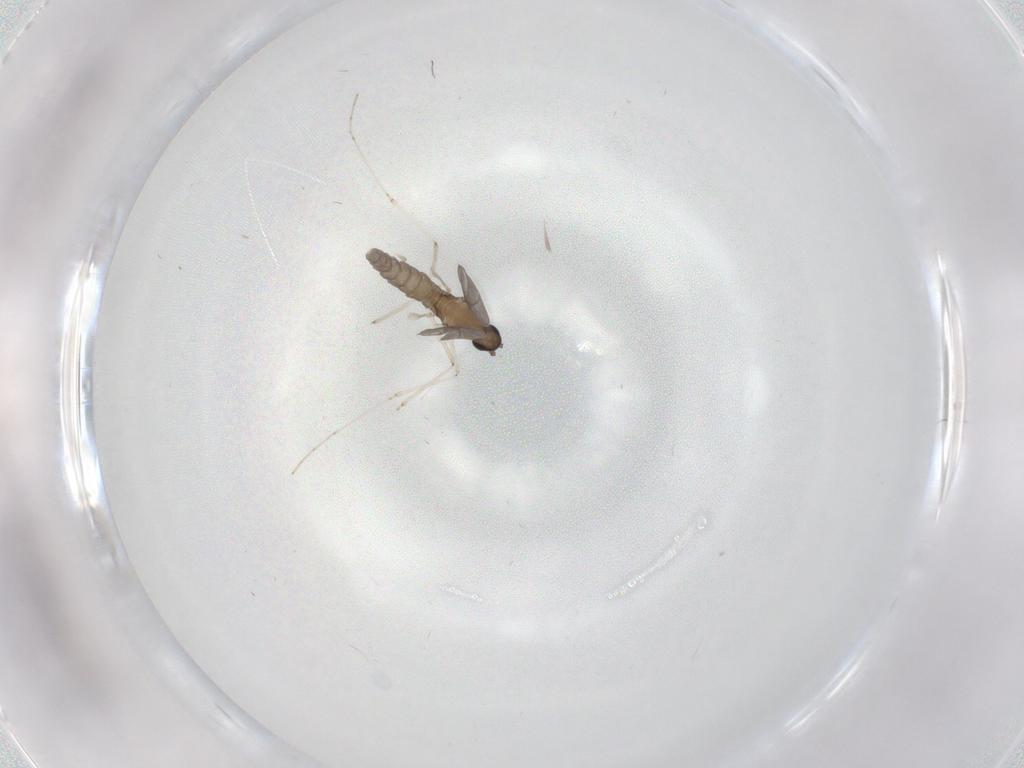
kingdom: Animalia
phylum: Arthropoda
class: Insecta
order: Diptera
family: Cecidomyiidae
